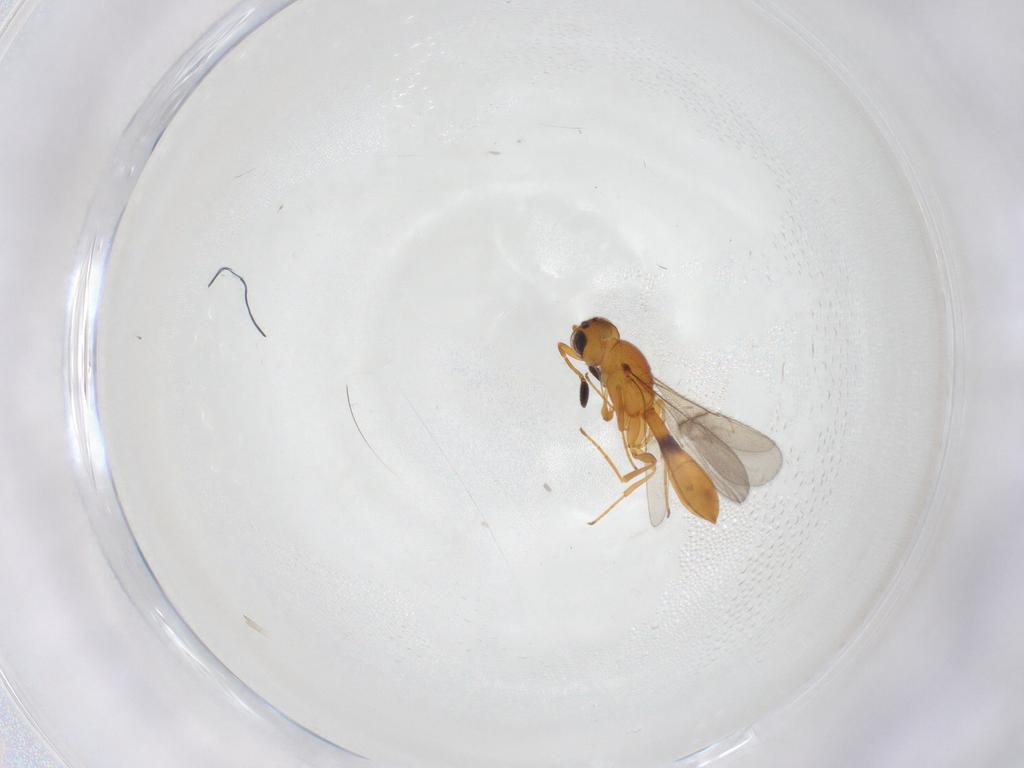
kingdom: Animalia
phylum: Arthropoda
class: Insecta
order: Hymenoptera
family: Scelionidae
